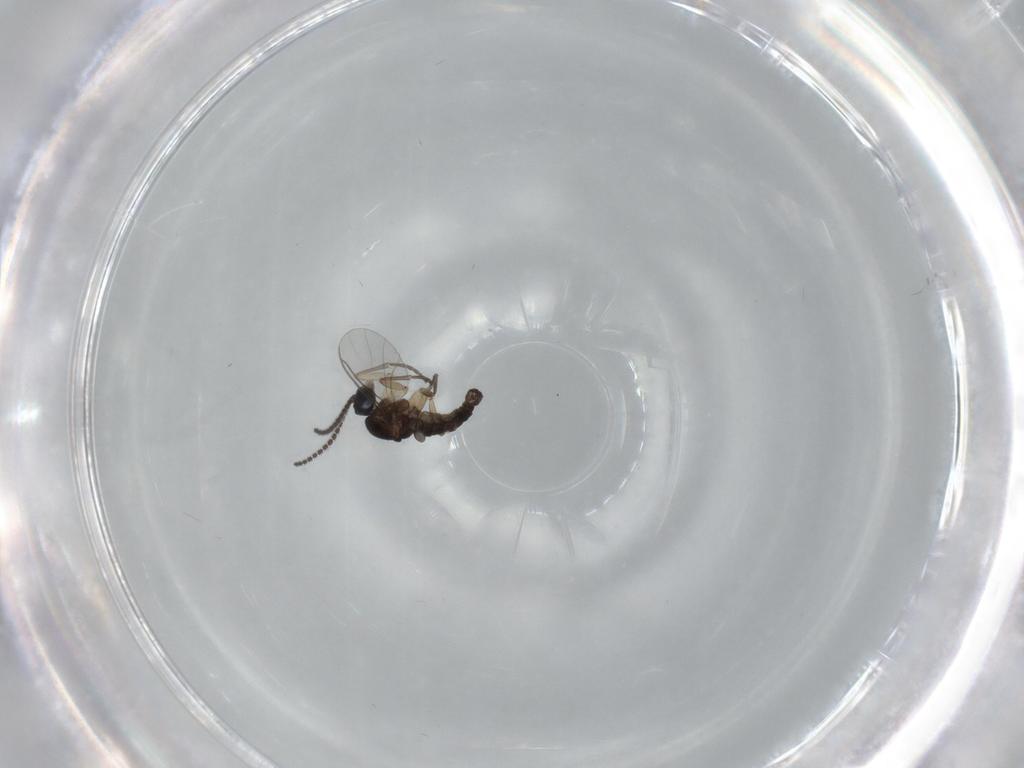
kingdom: Animalia
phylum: Arthropoda
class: Insecta
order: Diptera
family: Sciaridae
